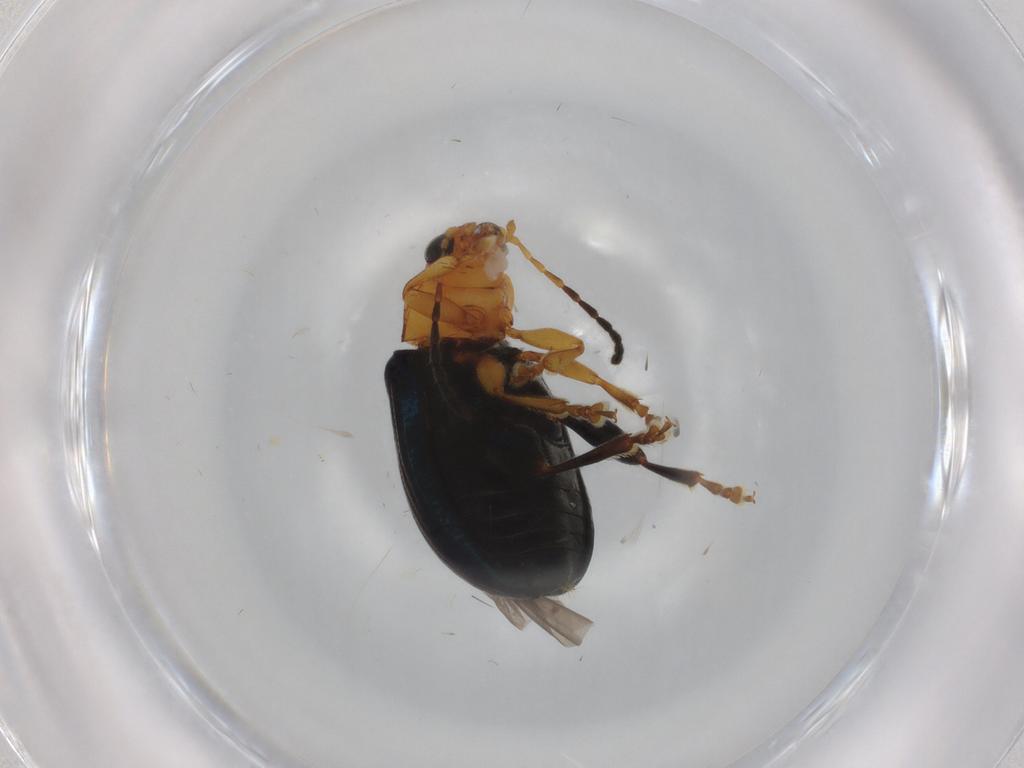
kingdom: Animalia
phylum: Arthropoda
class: Insecta
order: Coleoptera
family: Chrysomelidae
